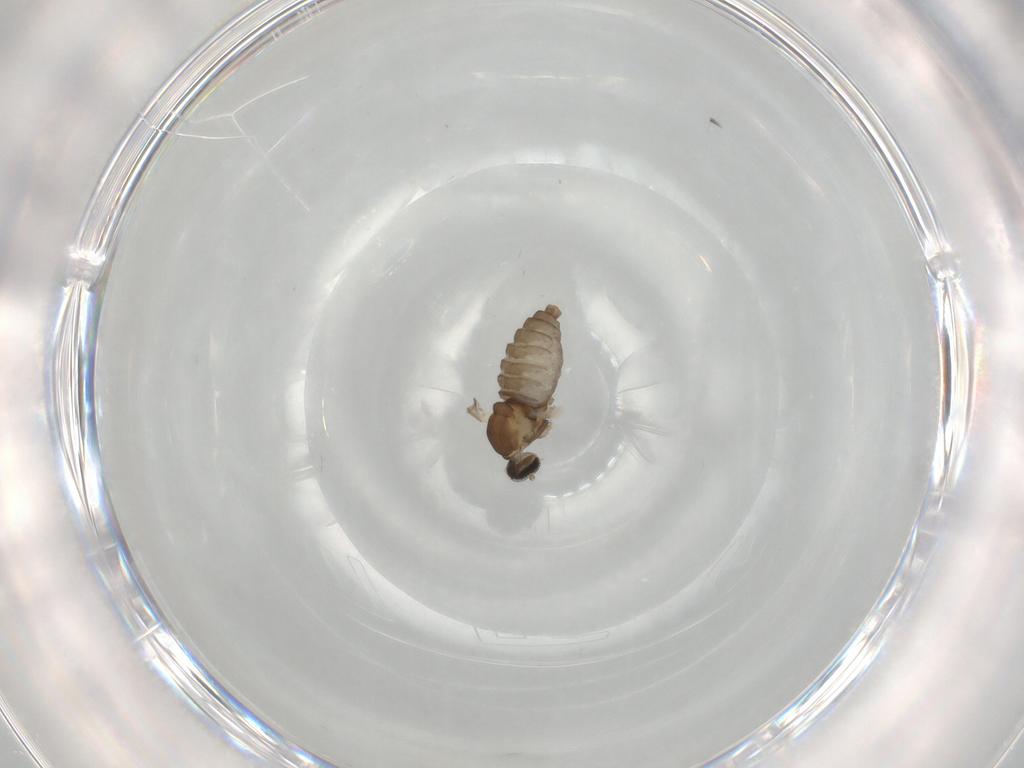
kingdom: Animalia
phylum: Arthropoda
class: Insecta
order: Diptera
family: Cecidomyiidae
